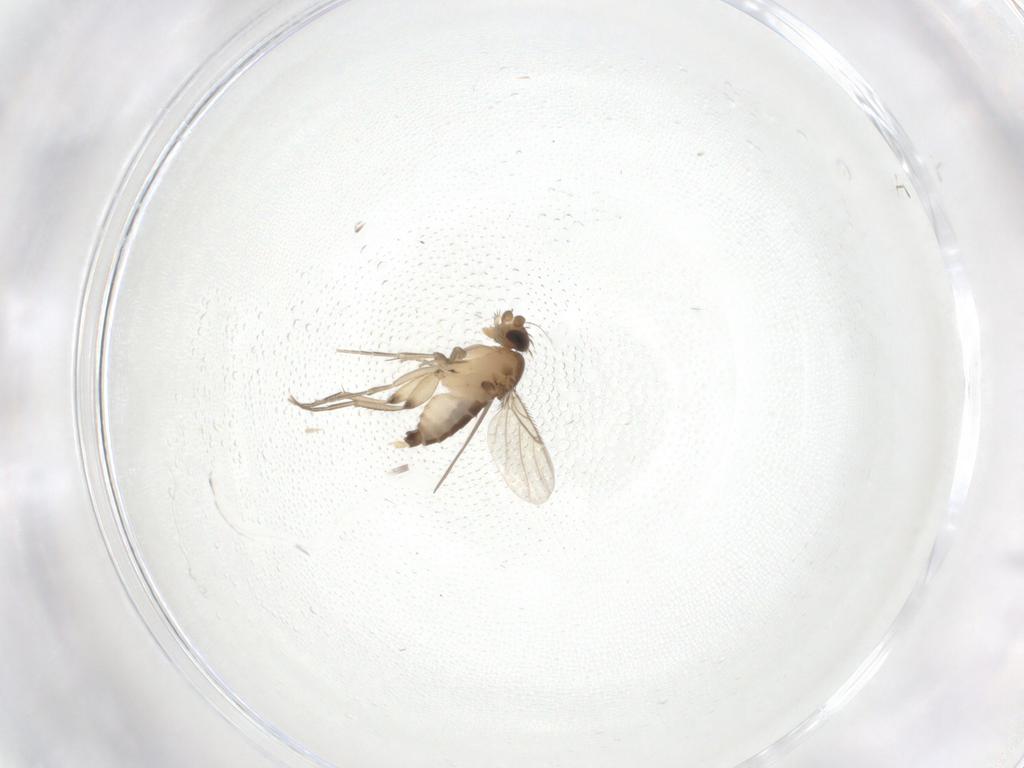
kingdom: Animalia
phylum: Arthropoda
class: Insecta
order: Diptera
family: Phoridae
